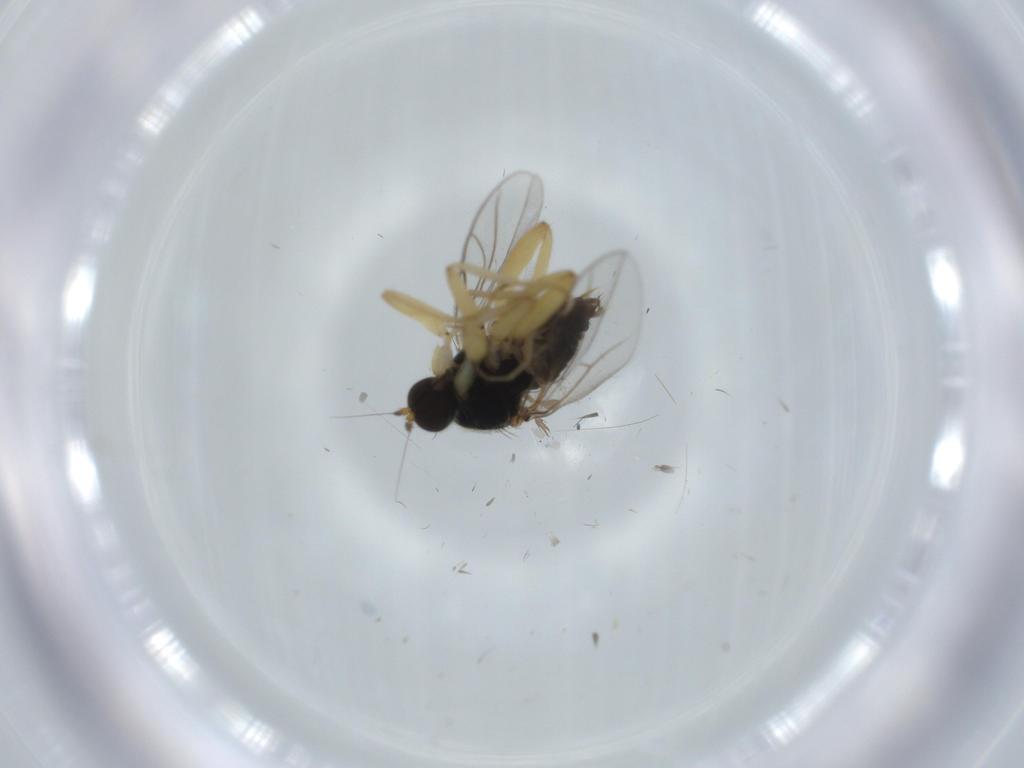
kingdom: Animalia
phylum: Arthropoda
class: Insecta
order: Diptera
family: Hybotidae
